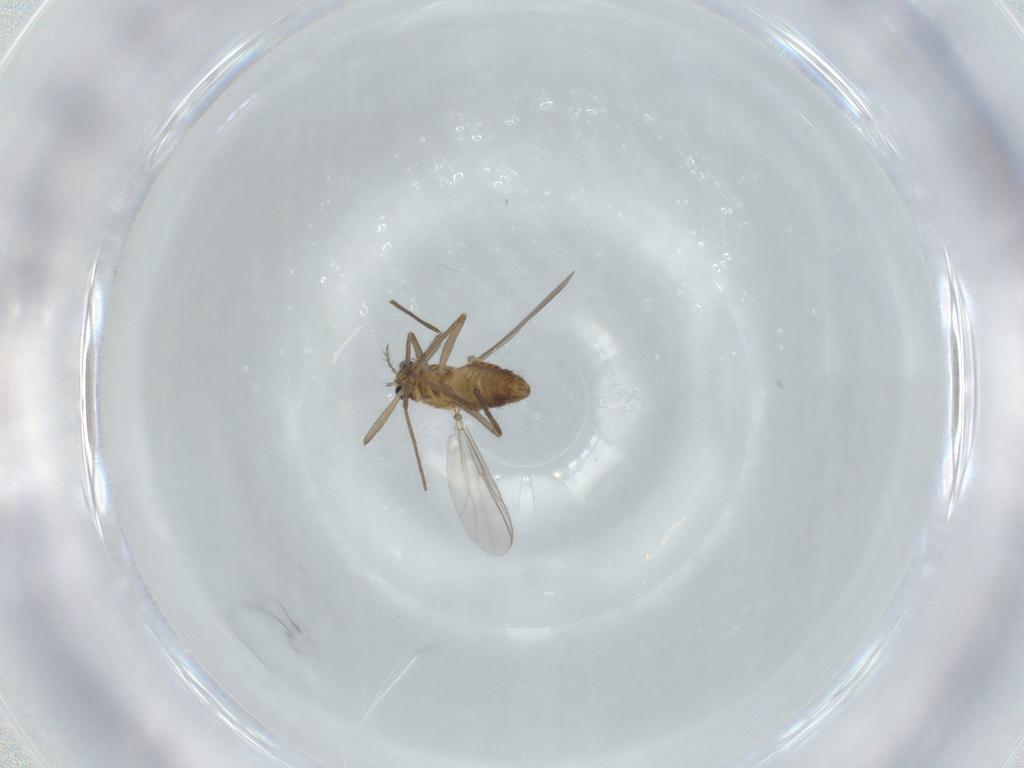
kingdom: Animalia
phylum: Arthropoda
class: Insecta
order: Diptera
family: Chironomidae
